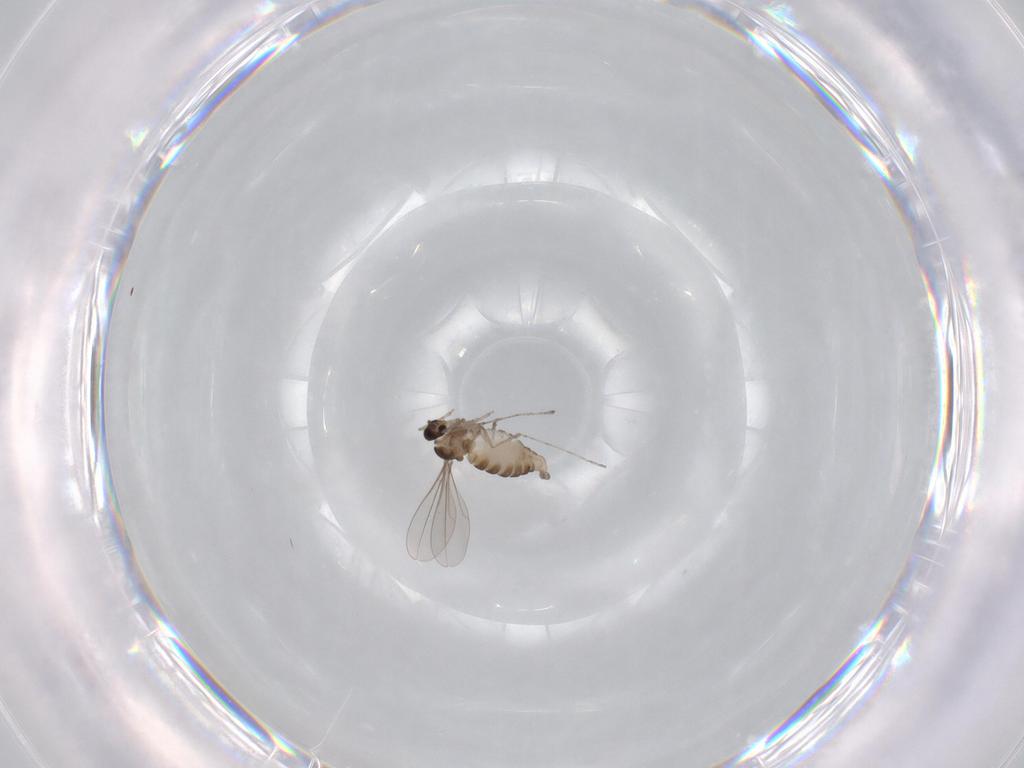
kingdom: Animalia
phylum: Arthropoda
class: Insecta
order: Diptera
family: Cecidomyiidae
